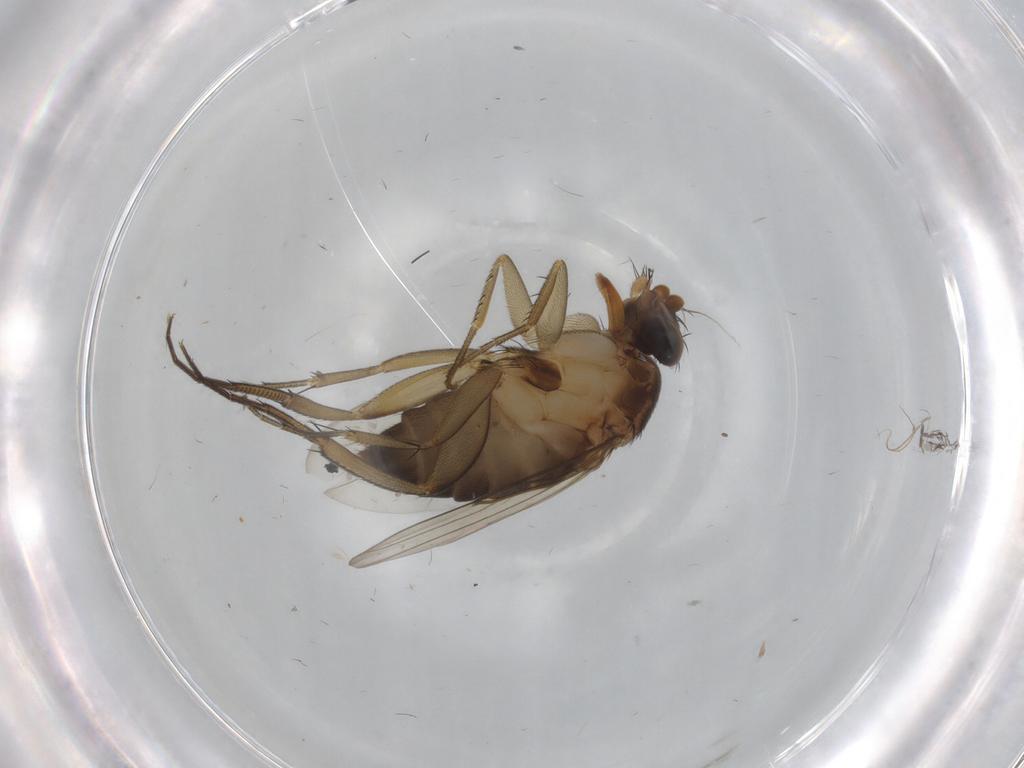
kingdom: Animalia
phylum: Arthropoda
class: Insecta
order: Diptera
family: Phoridae
